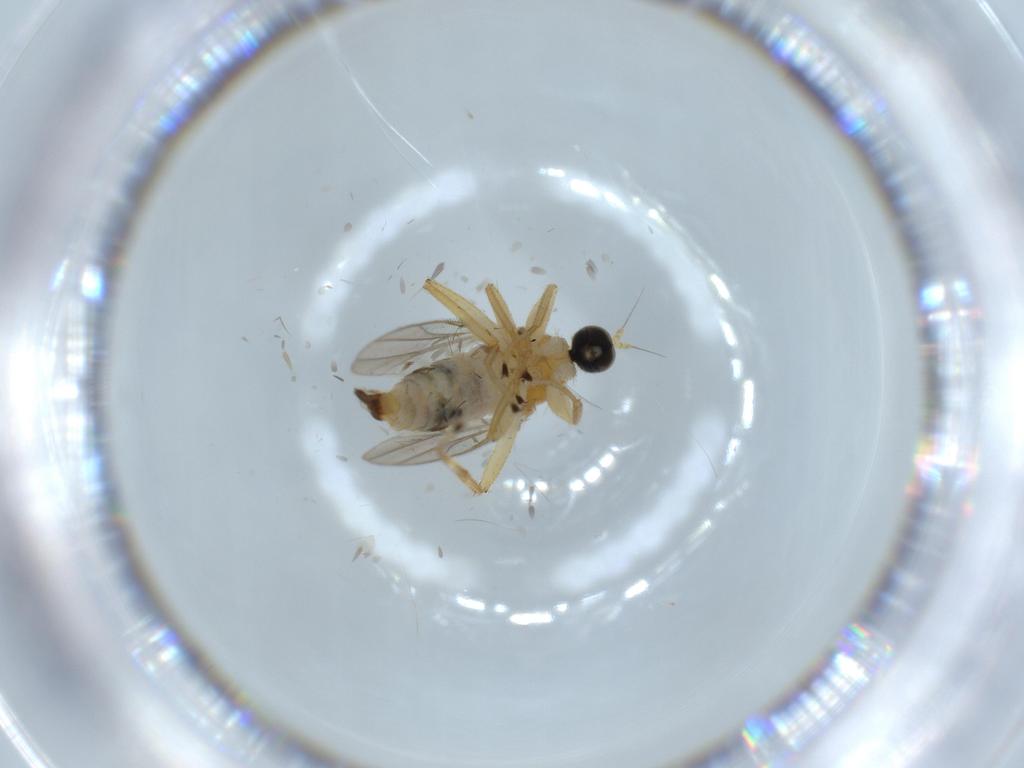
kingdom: Animalia
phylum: Arthropoda
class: Insecta
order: Diptera
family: Hybotidae
